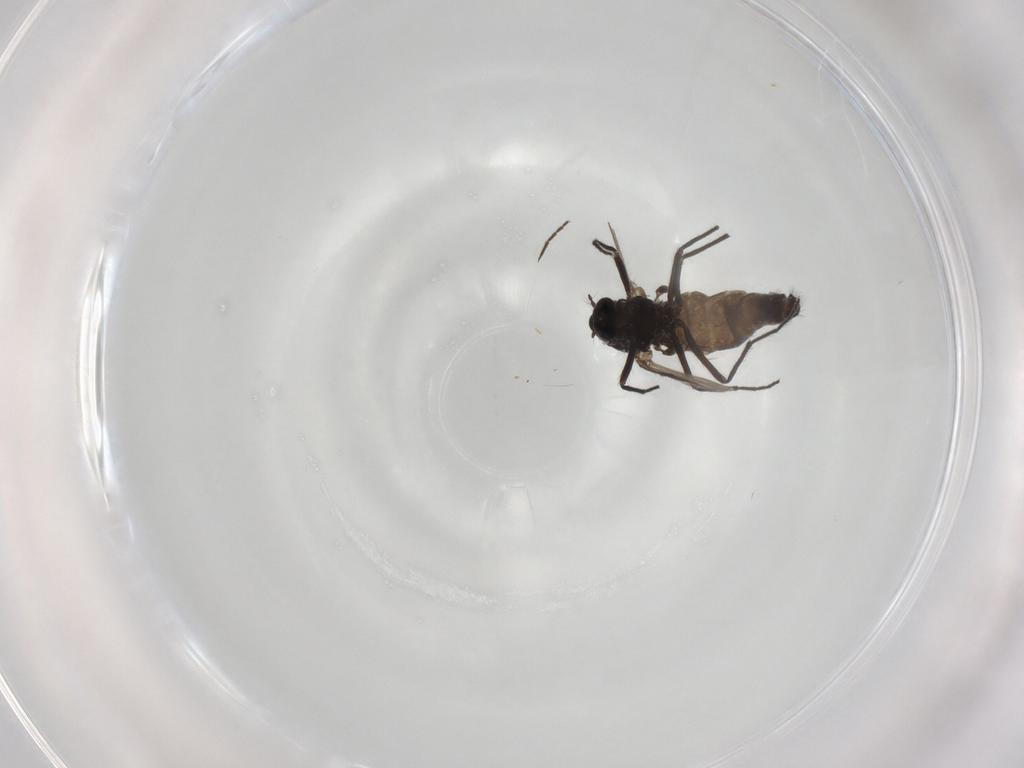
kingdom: Animalia
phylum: Arthropoda
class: Insecta
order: Diptera
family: Chironomidae
